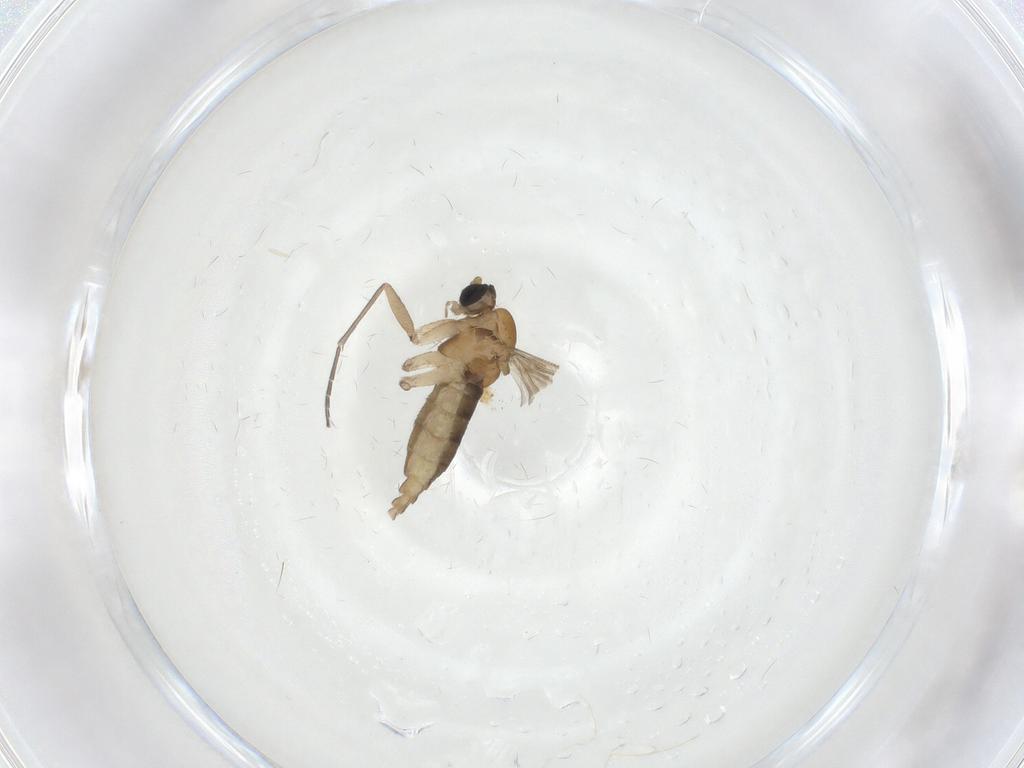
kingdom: Animalia
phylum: Arthropoda
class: Insecta
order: Diptera
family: Sciaridae
